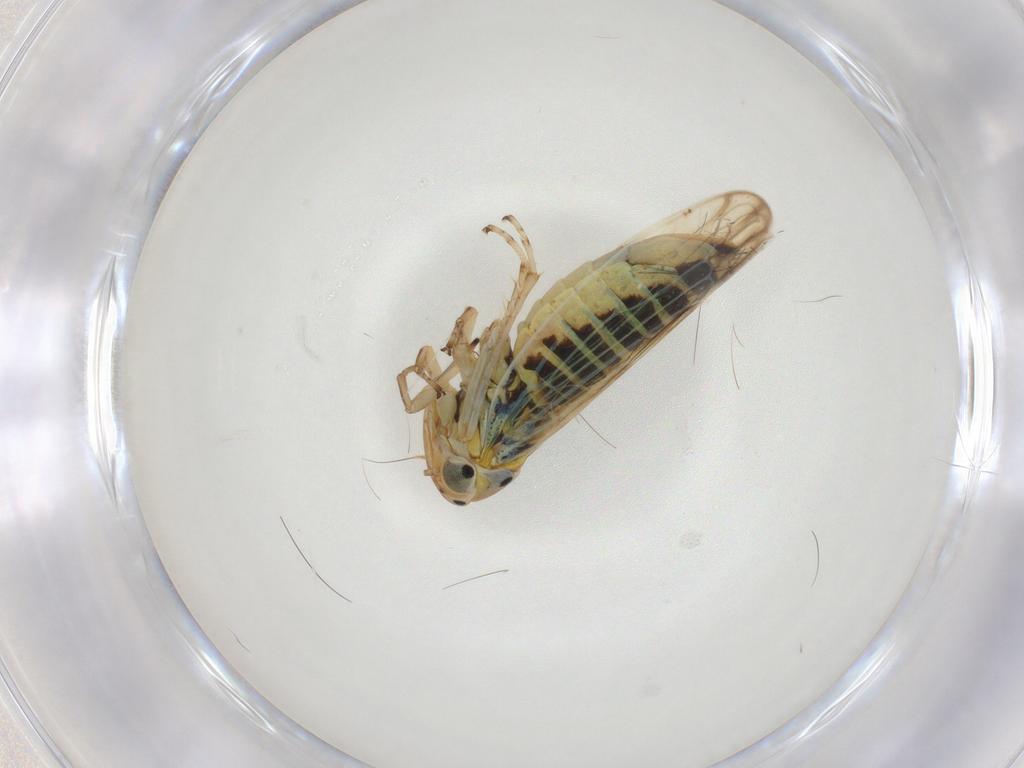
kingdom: Animalia
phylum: Arthropoda
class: Insecta
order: Hemiptera
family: Cicadellidae
